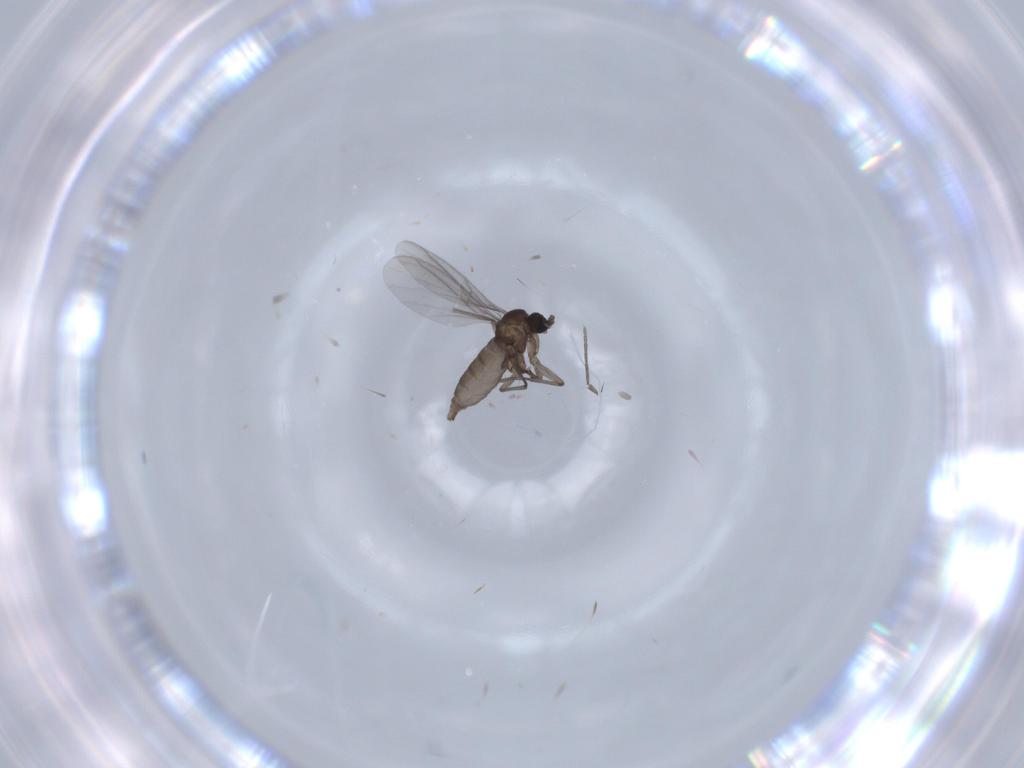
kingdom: Animalia
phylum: Arthropoda
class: Insecta
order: Diptera
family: Sciaridae
